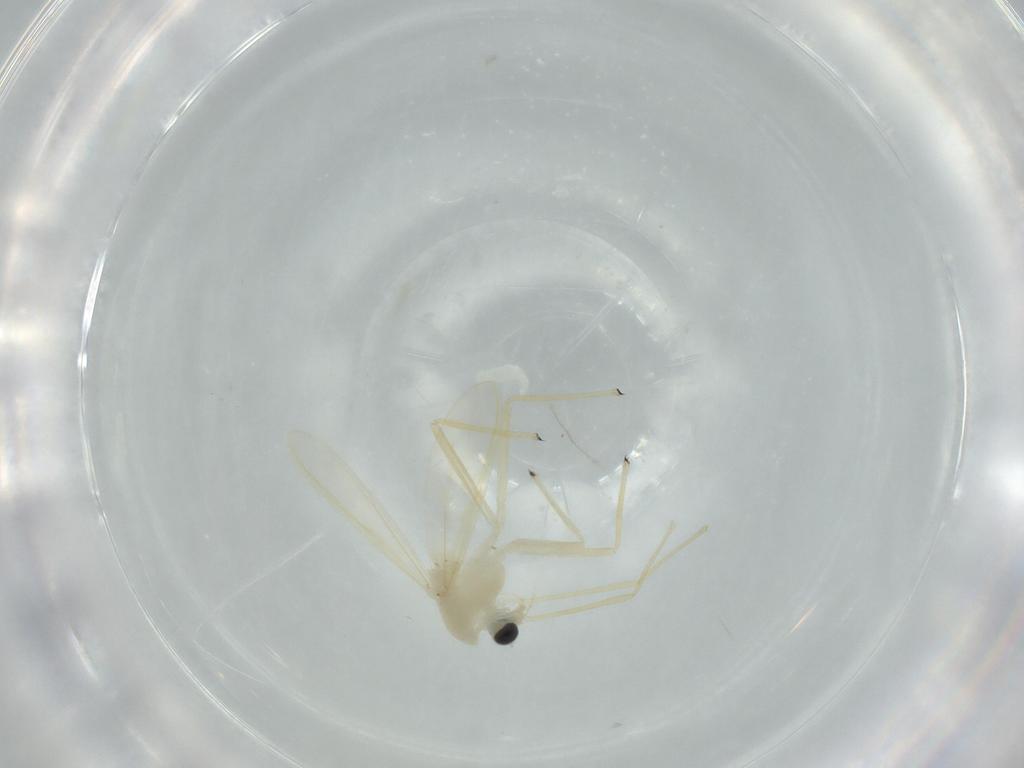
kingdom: Animalia
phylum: Arthropoda
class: Insecta
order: Diptera
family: Chironomidae
